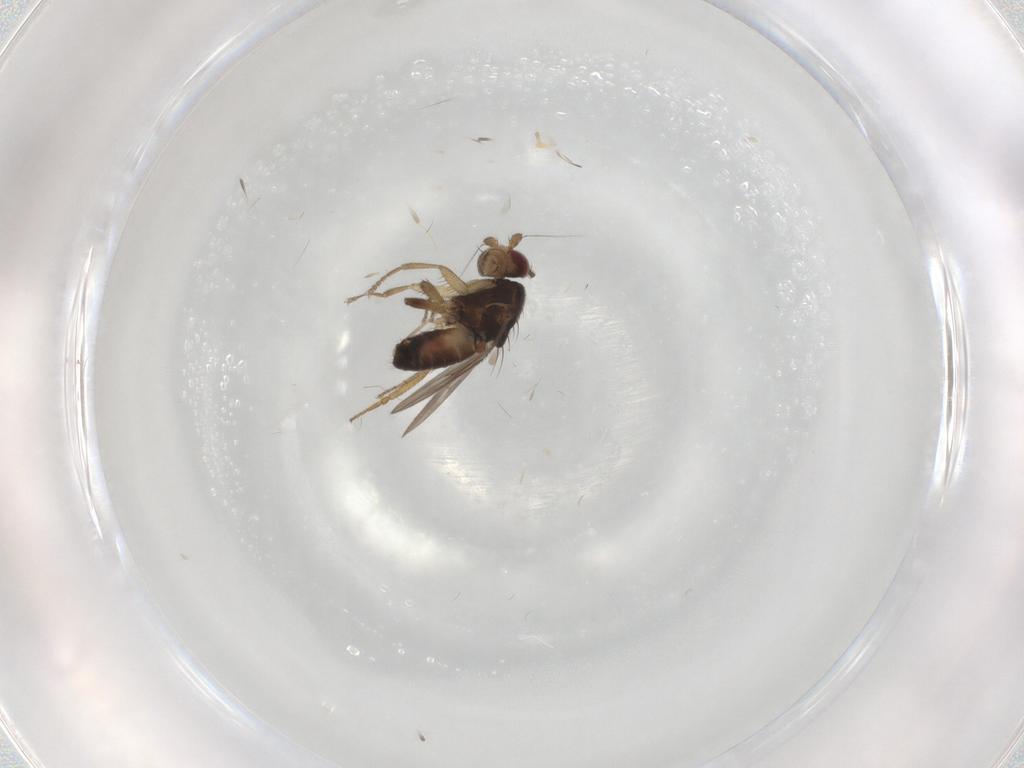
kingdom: Animalia
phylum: Arthropoda
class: Insecta
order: Diptera
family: Sphaeroceridae
